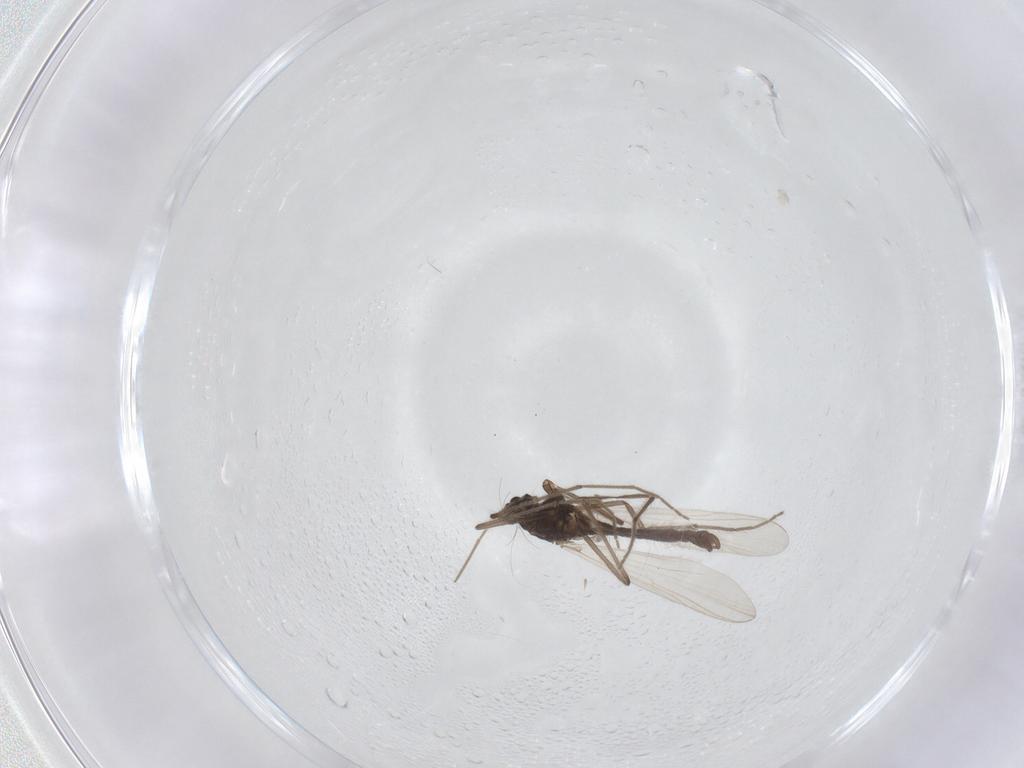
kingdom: Animalia
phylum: Arthropoda
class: Insecta
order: Diptera
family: Chironomidae
